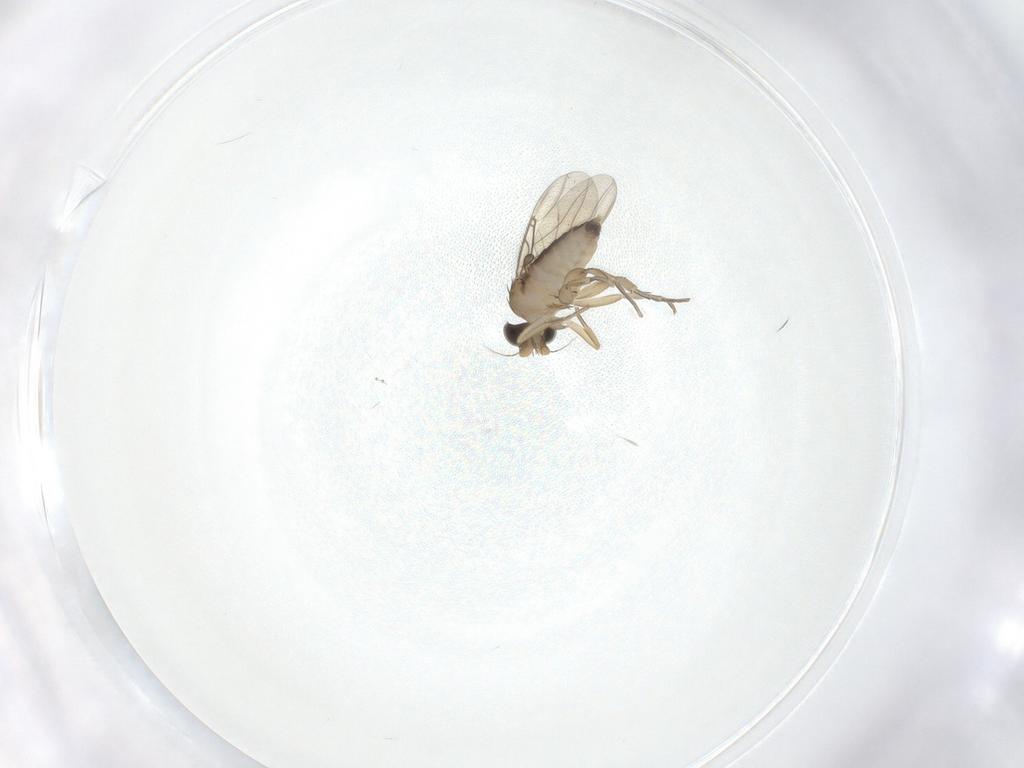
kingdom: Animalia
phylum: Arthropoda
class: Insecta
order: Diptera
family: Phoridae
